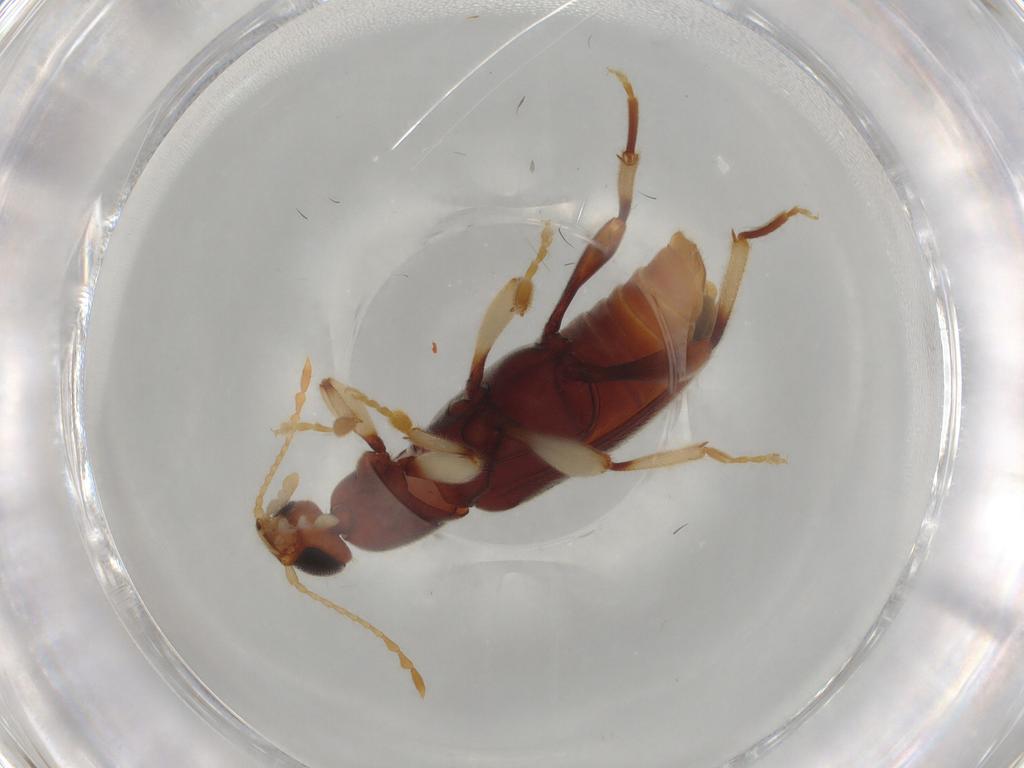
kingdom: Animalia
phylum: Arthropoda
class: Insecta
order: Coleoptera
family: Anthicidae
